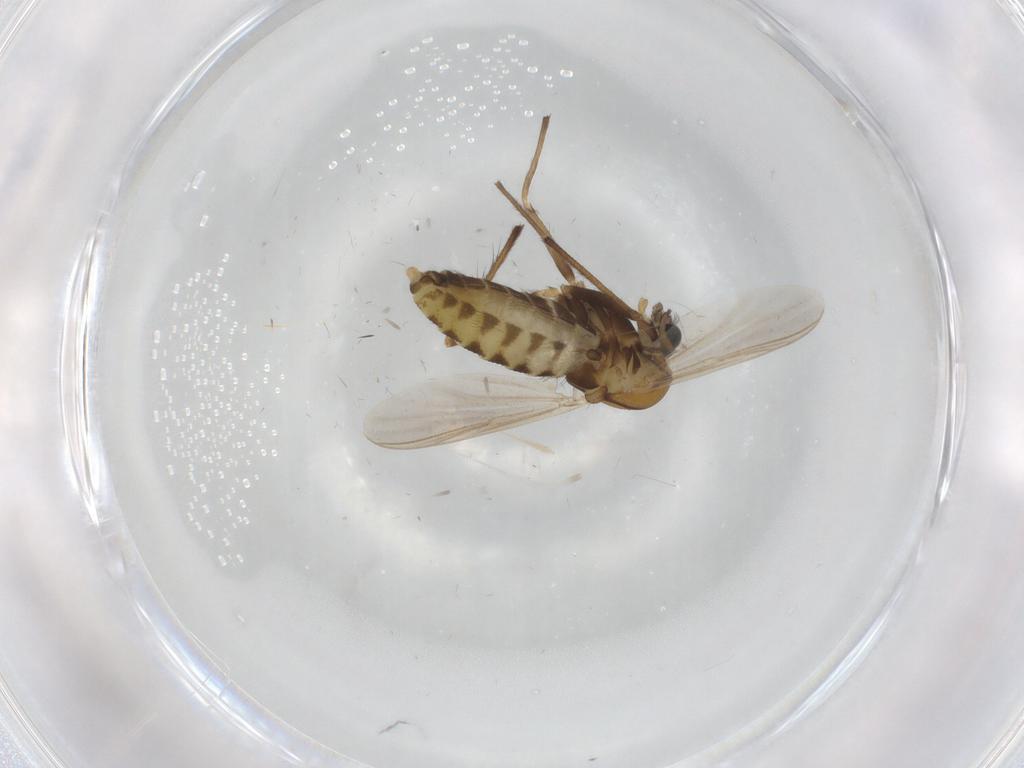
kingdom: Animalia
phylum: Arthropoda
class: Insecta
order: Diptera
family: Chironomidae
